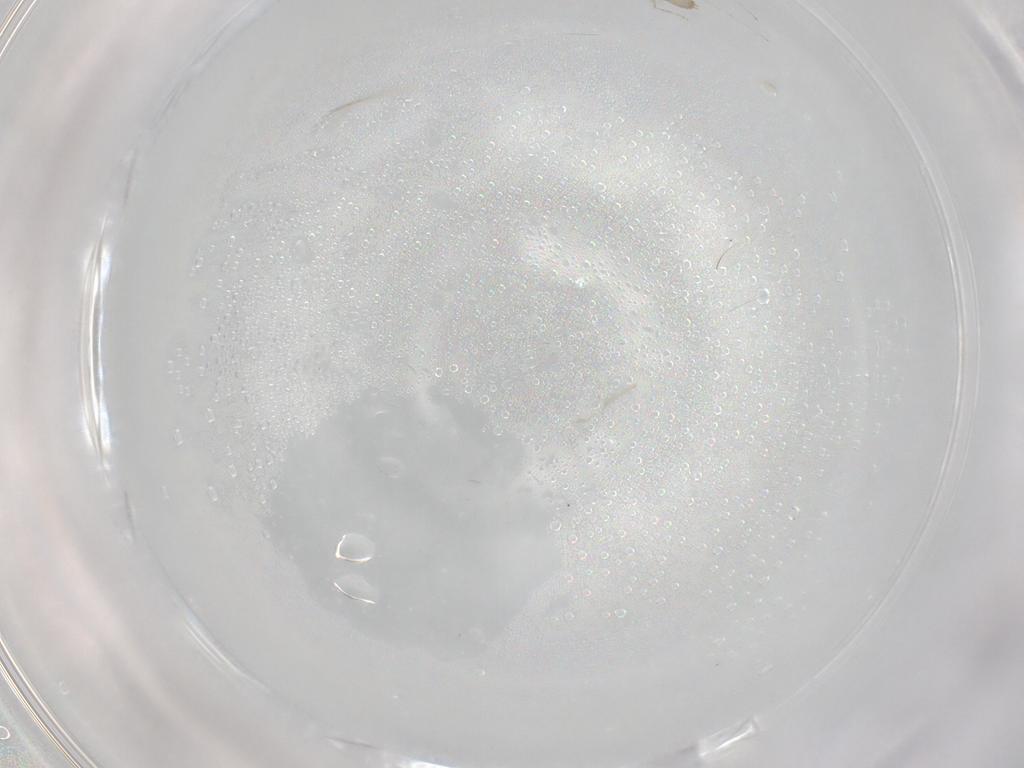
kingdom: Animalia
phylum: Arthropoda
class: Insecta
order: Diptera
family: Cecidomyiidae
